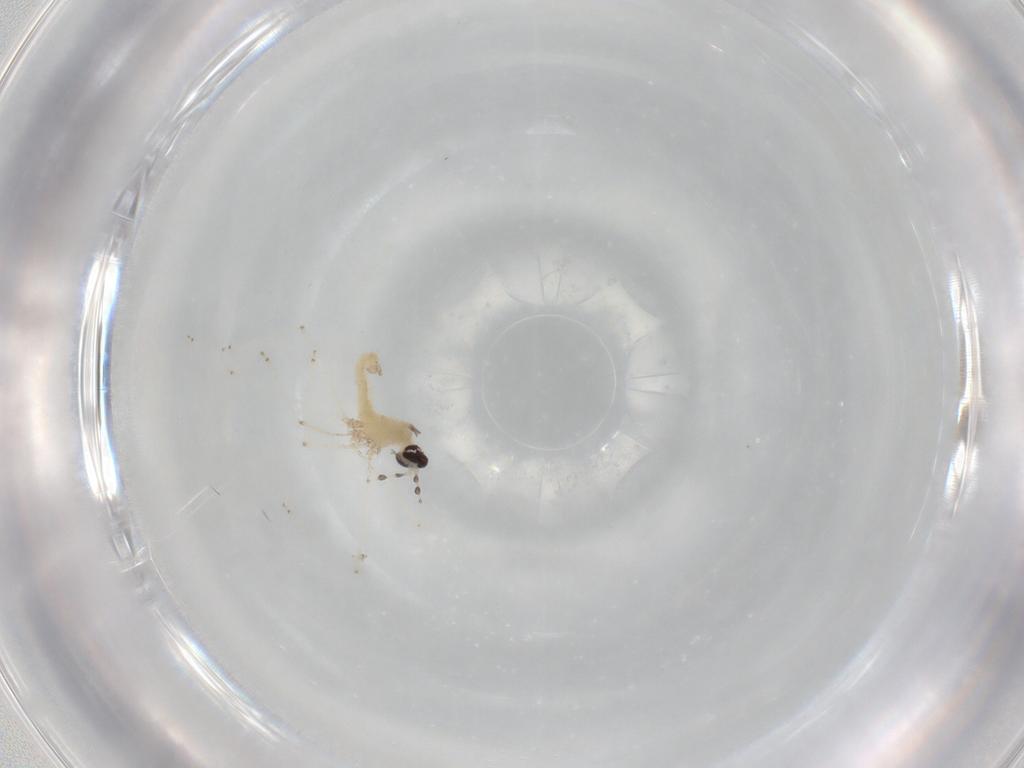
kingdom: Animalia
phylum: Arthropoda
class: Insecta
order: Diptera
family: Cecidomyiidae
